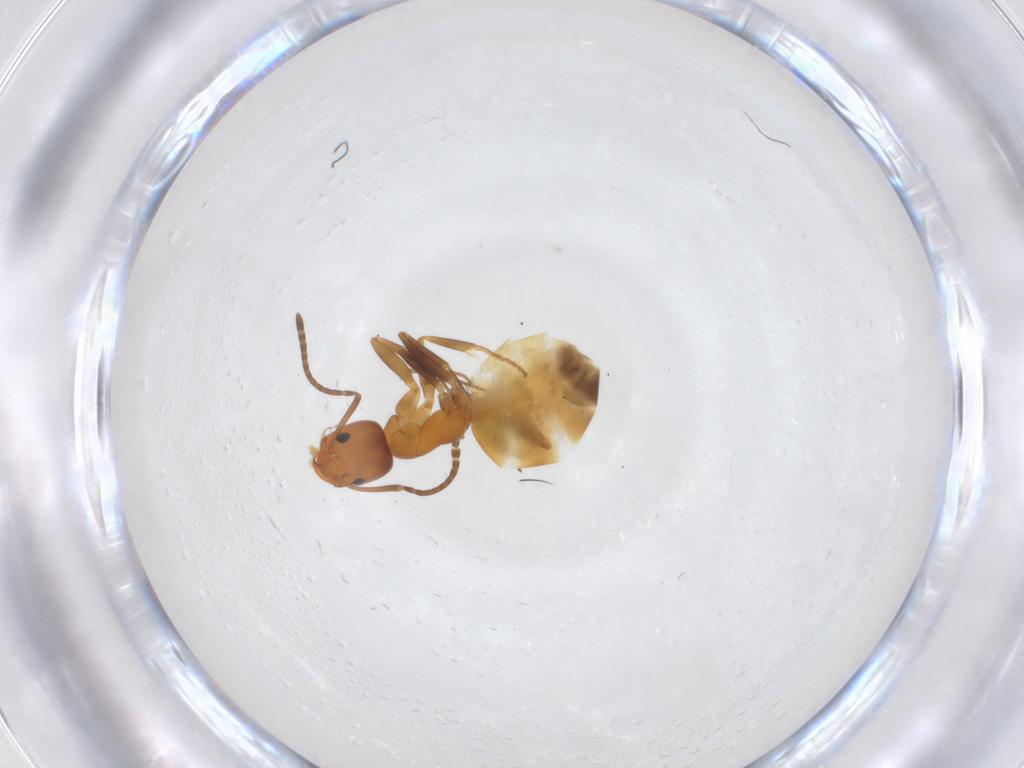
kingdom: Animalia
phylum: Arthropoda
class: Insecta
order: Hymenoptera
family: Formicidae
